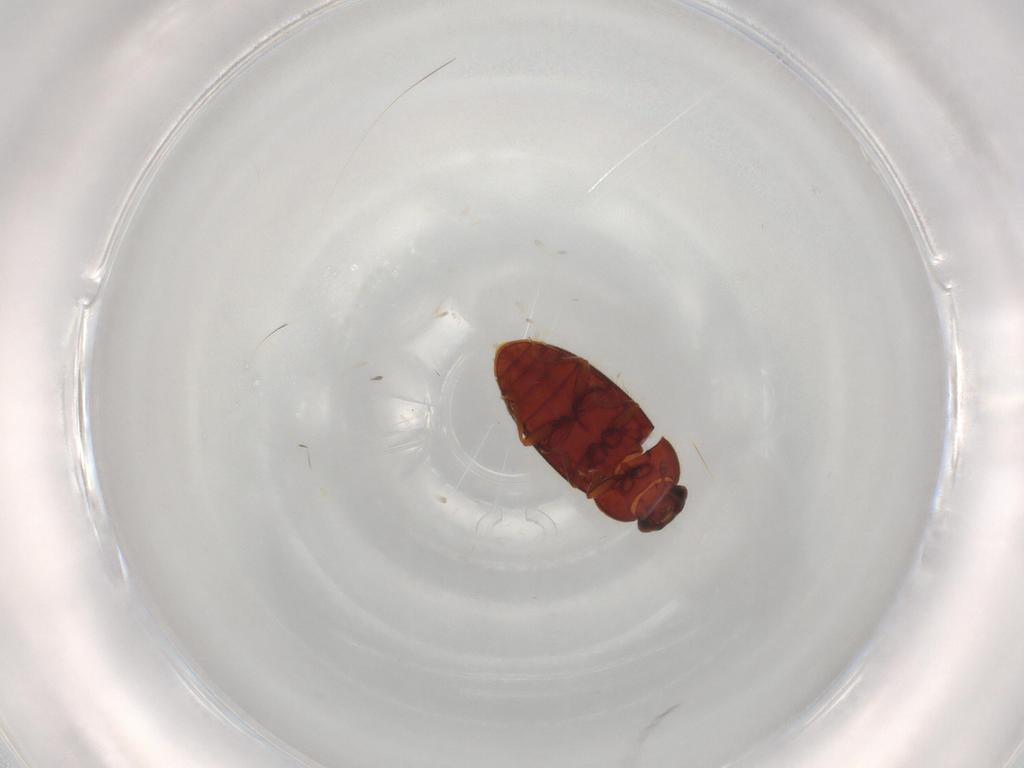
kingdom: Animalia
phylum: Arthropoda
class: Insecta
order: Coleoptera
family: Biphyllidae
